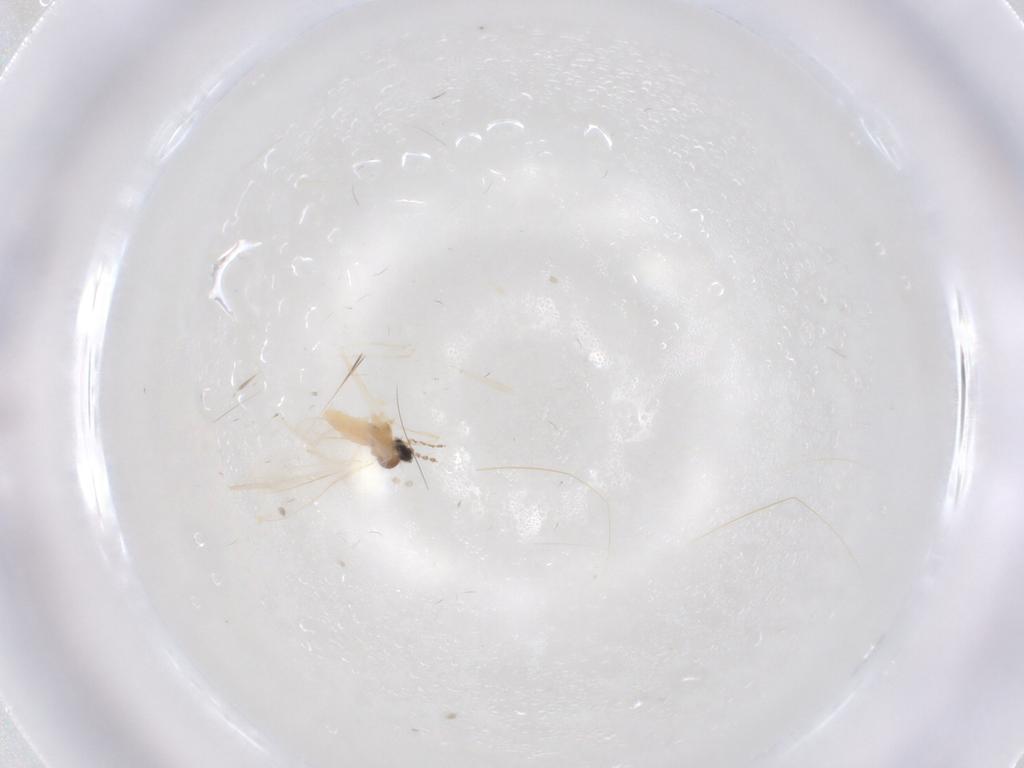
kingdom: Animalia
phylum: Arthropoda
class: Insecta
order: Diptera
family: Cecidomyiidae
